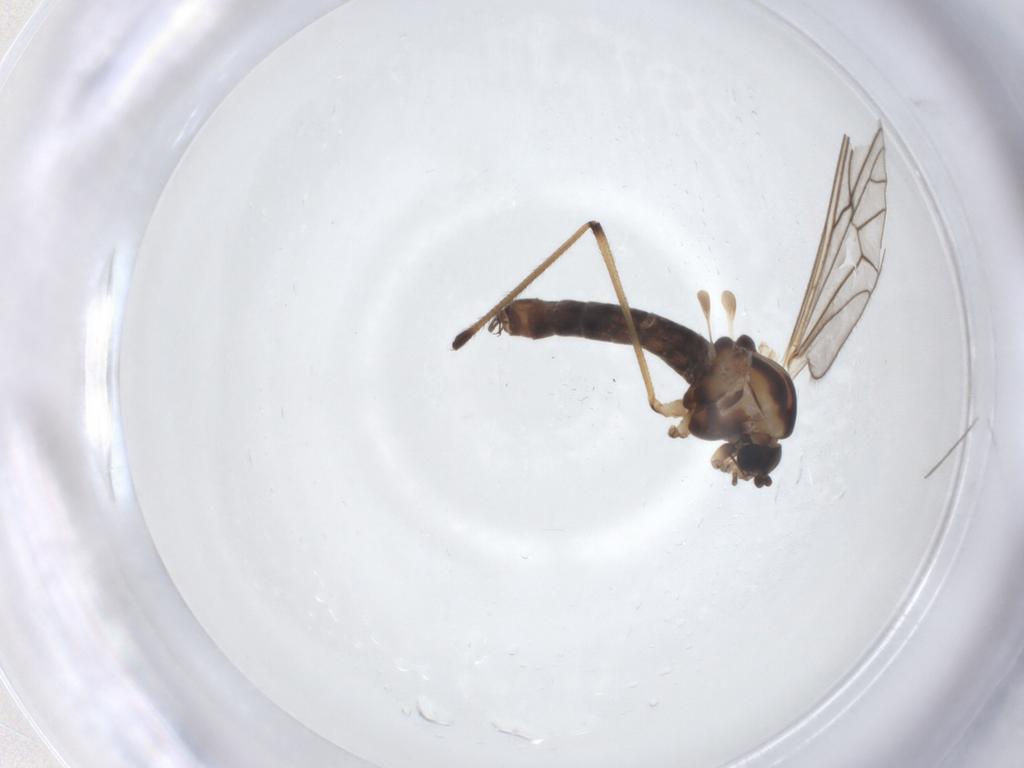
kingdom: Animalia
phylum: Arthropoda
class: Insecta
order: Diptera
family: Dixidae
